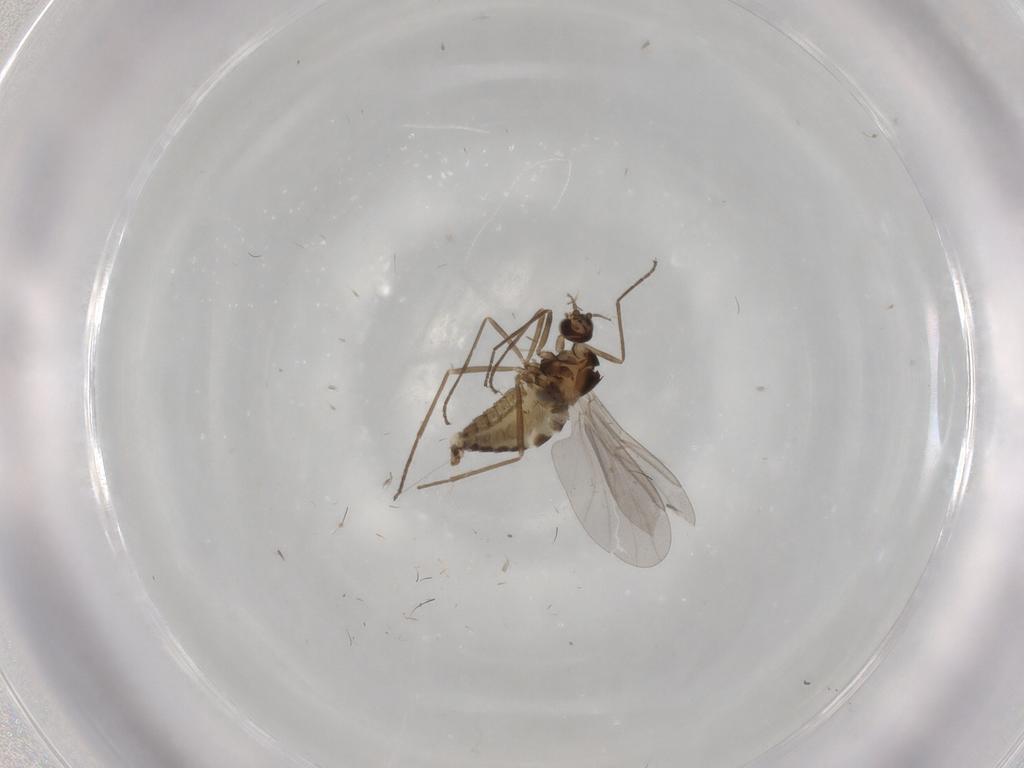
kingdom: Animalia
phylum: Arthropoda
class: Insecta
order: Diptera
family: Cecidomyiidae
